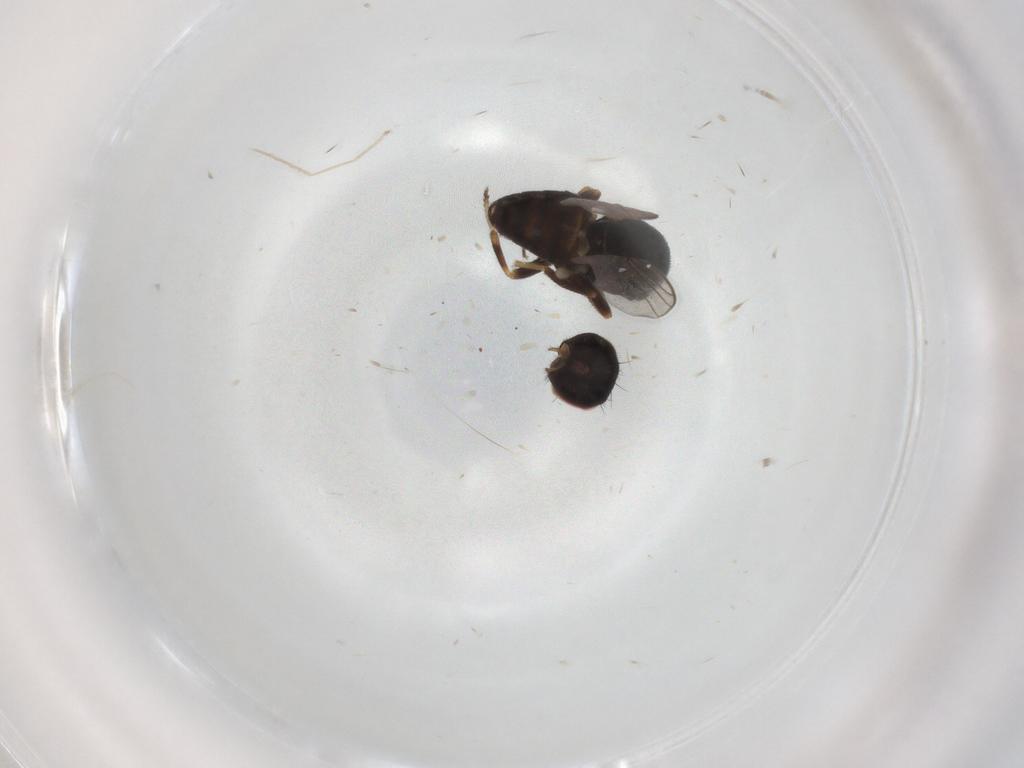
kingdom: Animalia
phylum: Arthropoda
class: Insecta
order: Diptera
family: Chloropidae
